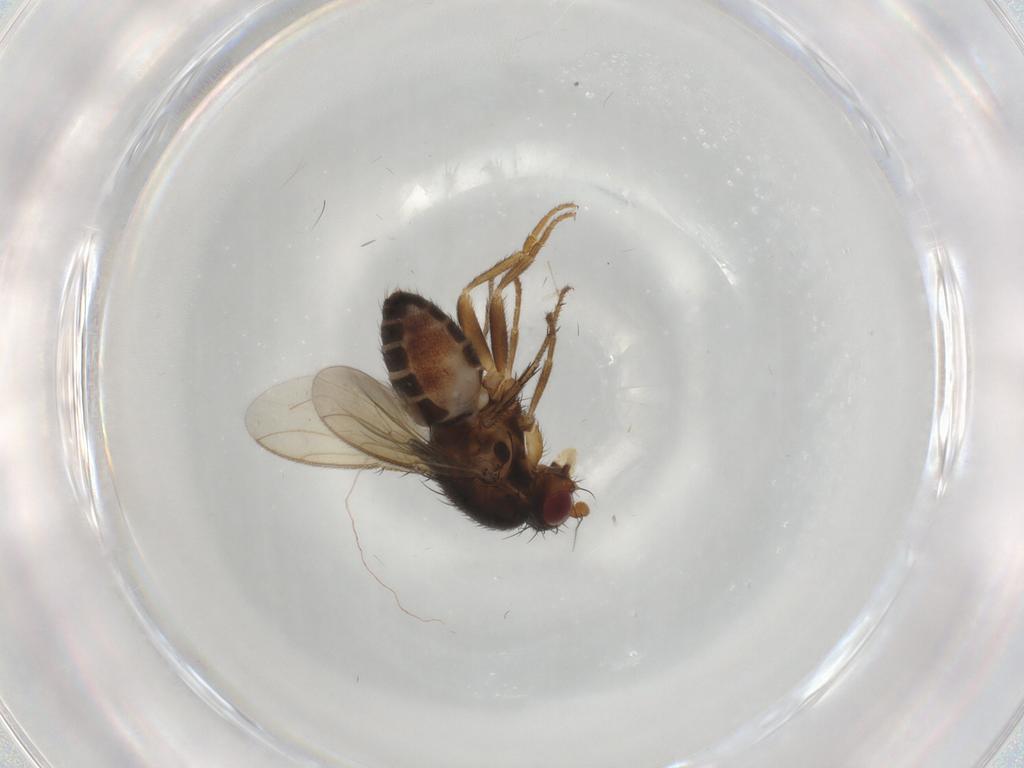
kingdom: Animalia
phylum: Arthropoda
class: Insecta
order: Diptera
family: Sphaeroceridae
